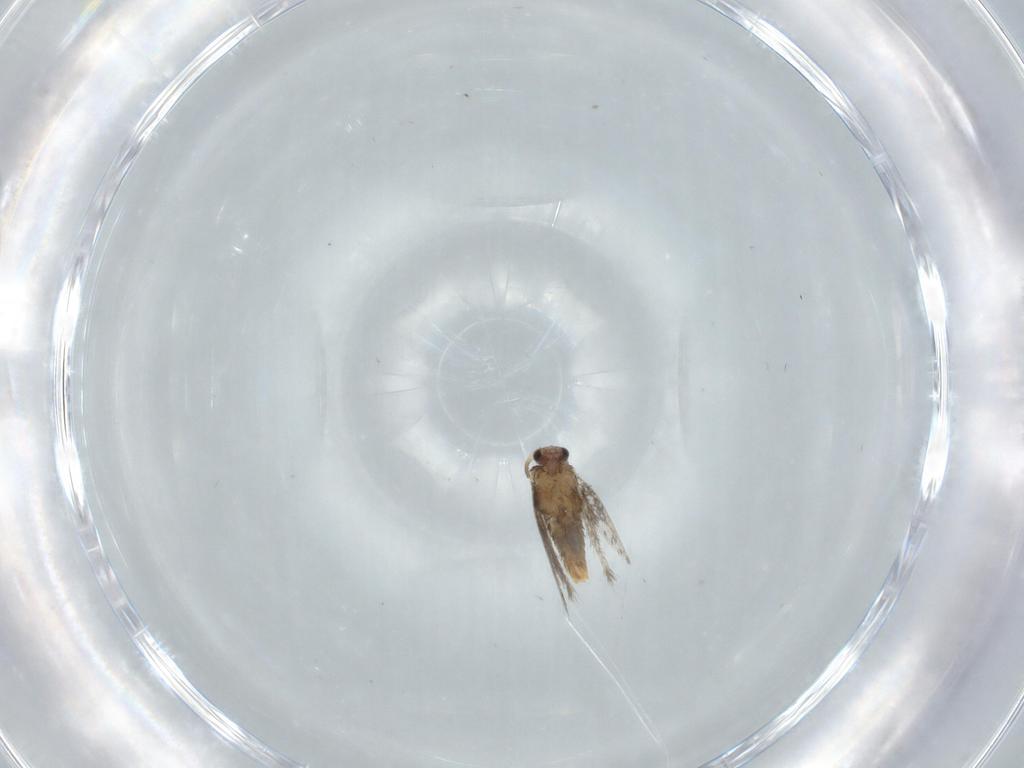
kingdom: Animalia
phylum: Arthropoda
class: Insecta
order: Lepidoptera
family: Nepticulidae
